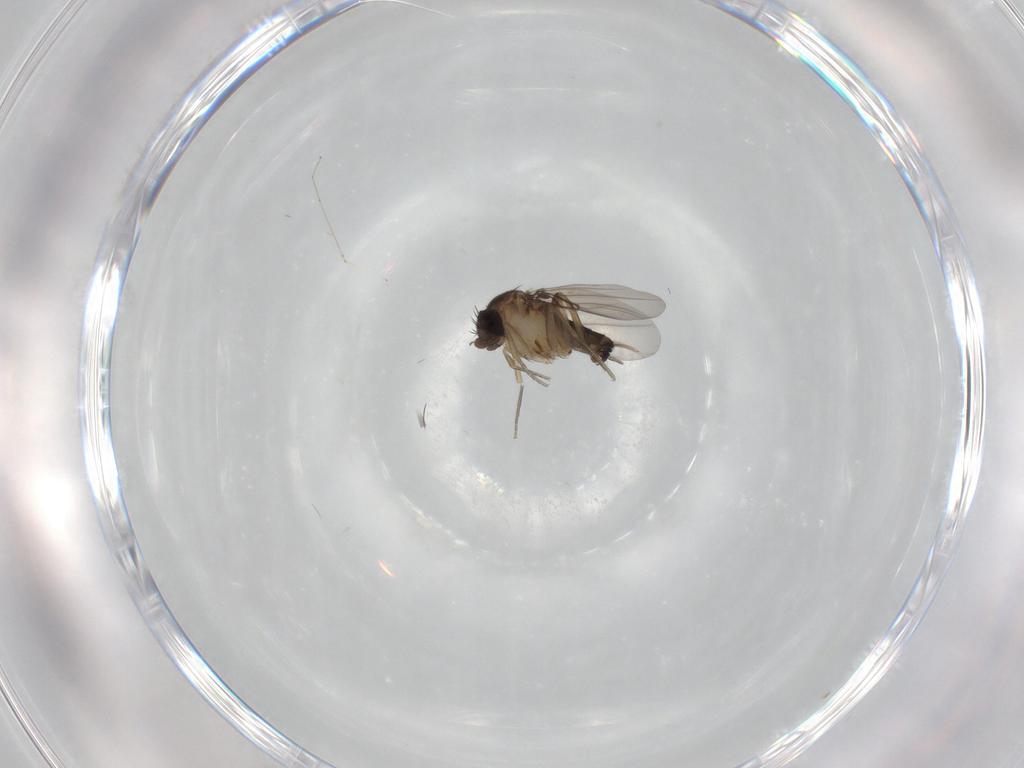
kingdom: Animalia
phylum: Arthropoda
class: Insecta
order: Diptera
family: Sciaridae
